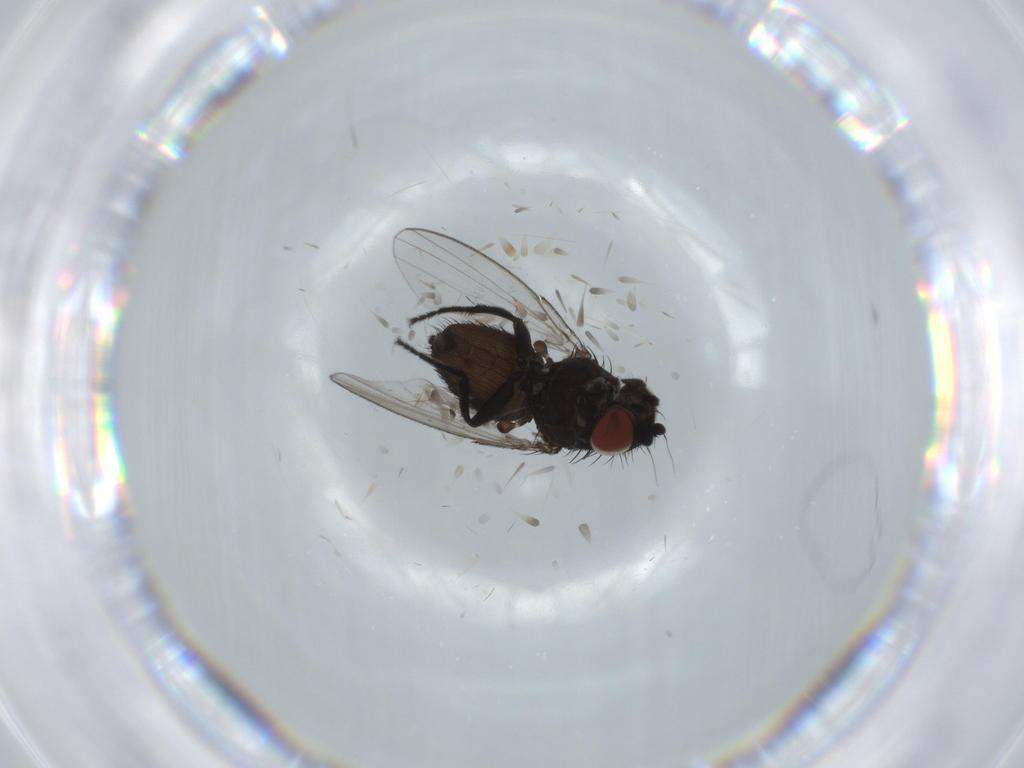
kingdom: Animalia
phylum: Arthropoda
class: Insecta
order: Diptera
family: Milichiidae
